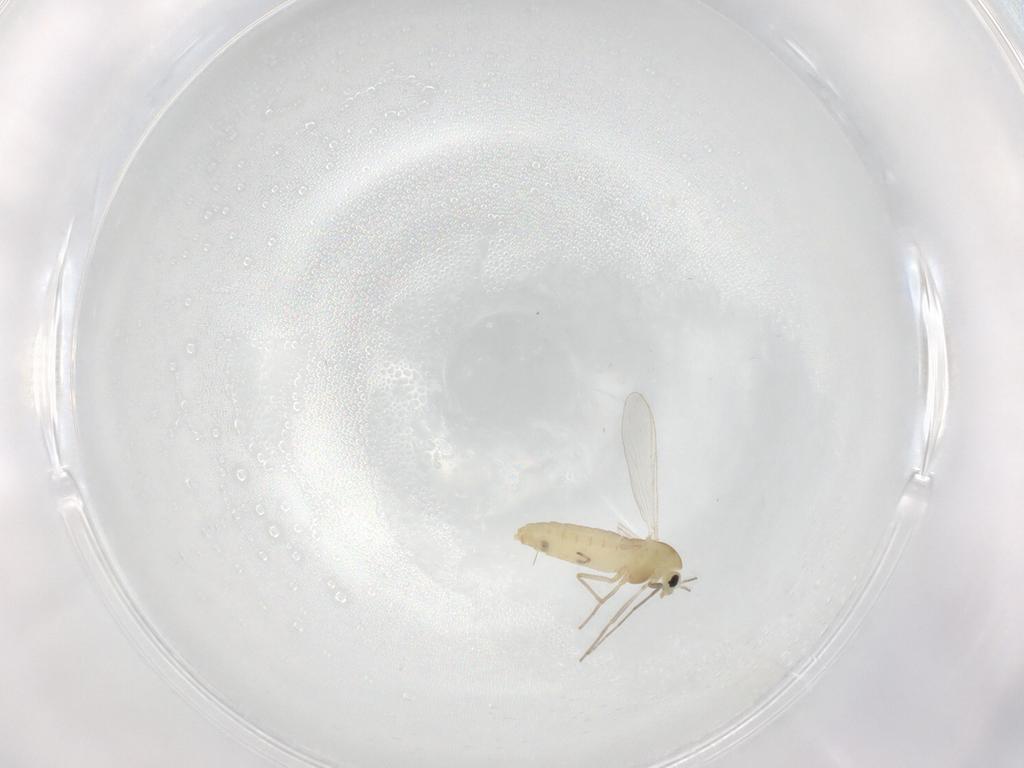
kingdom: Animalia
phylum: Arthropoda
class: Insecta
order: Diptera
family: Chironomidae
